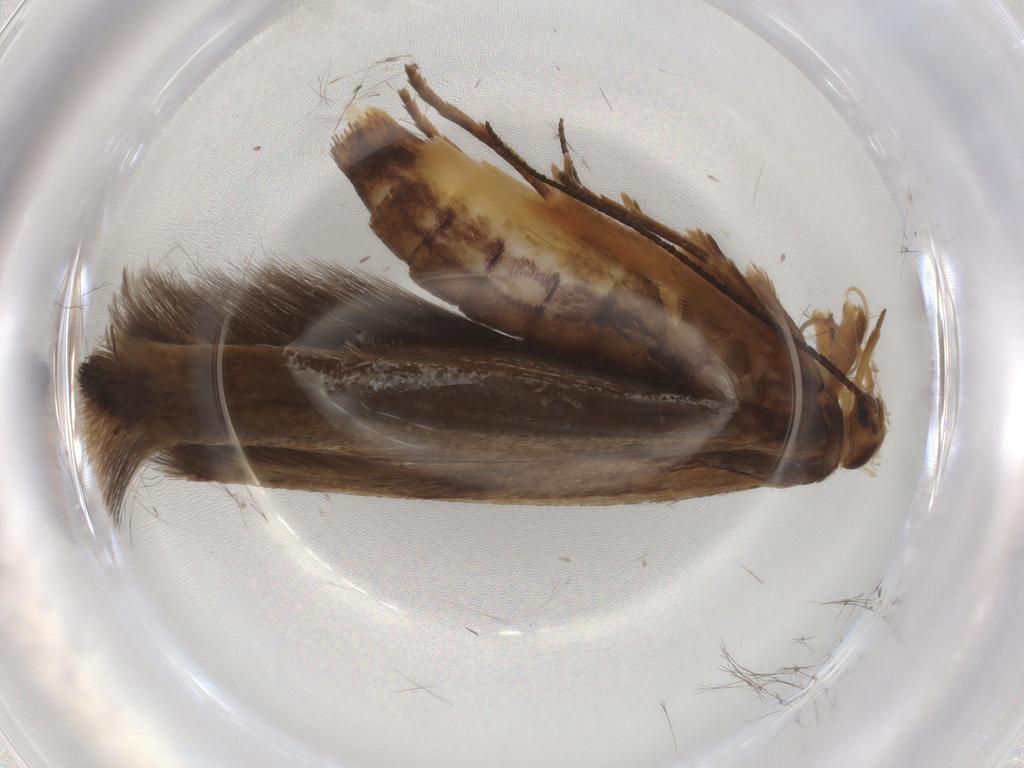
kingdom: Animalia
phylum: Arthropoda
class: Insecta
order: Lepidoptera
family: Scythrididae
